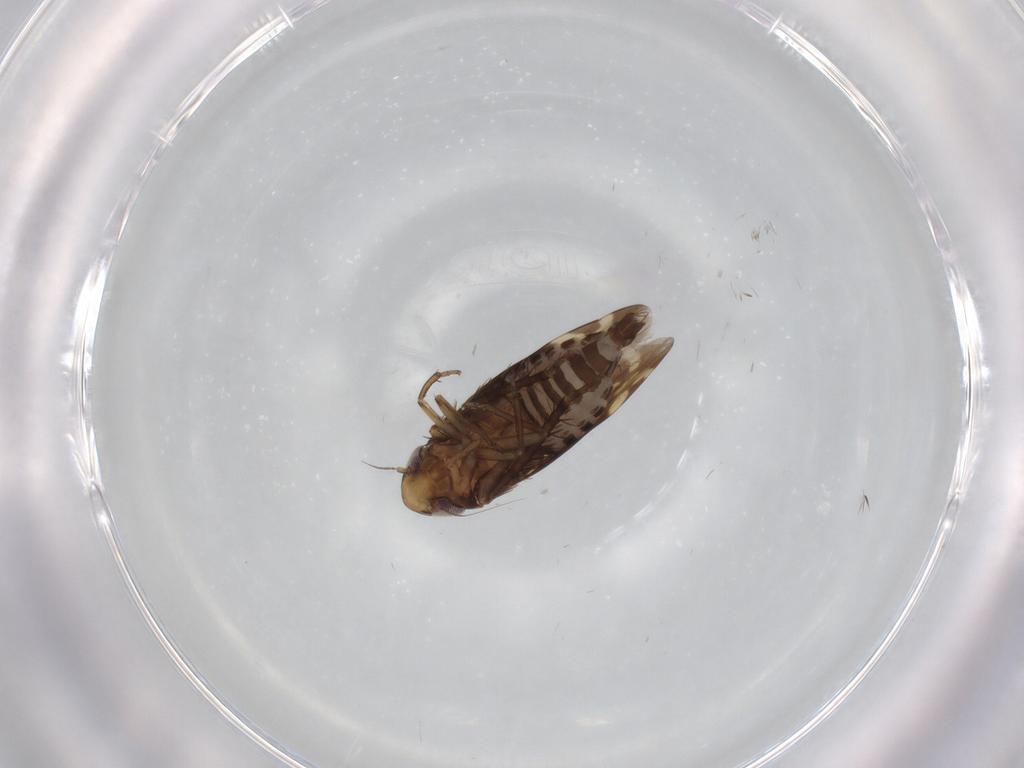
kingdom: Animalia
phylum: Arthropoda
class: Insecta
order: Hemiptera
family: Cicadellidae
